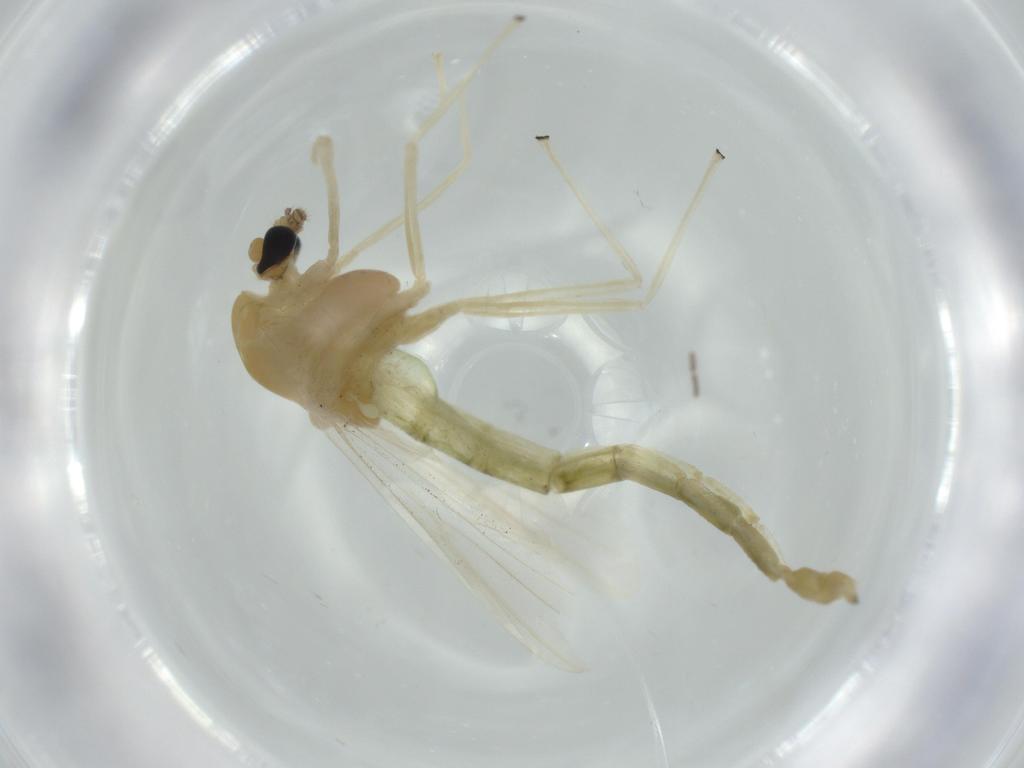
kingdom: Animalia
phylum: Arthropoda
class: Insecta
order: Diptera
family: Chironomidae
